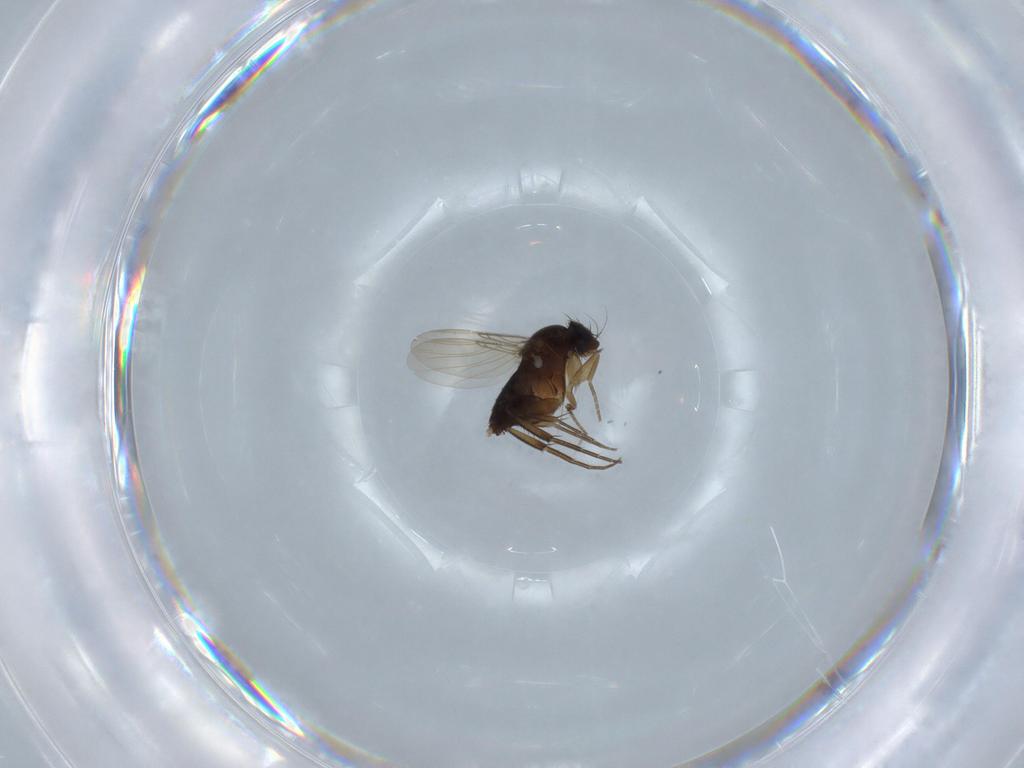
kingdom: Animalia
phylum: Arthropoda
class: Insecta
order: Diptera
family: Phoridae
